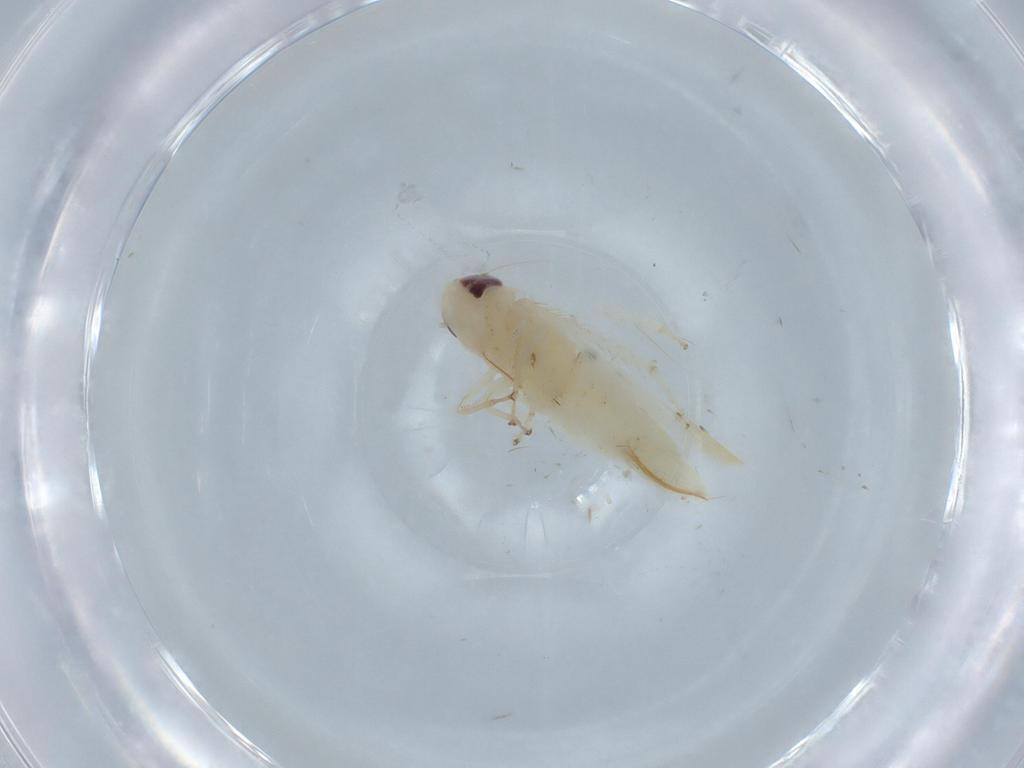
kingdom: Animalia
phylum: Arthropoda
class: Insecta
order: Hemiptera
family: Cicadellidae
